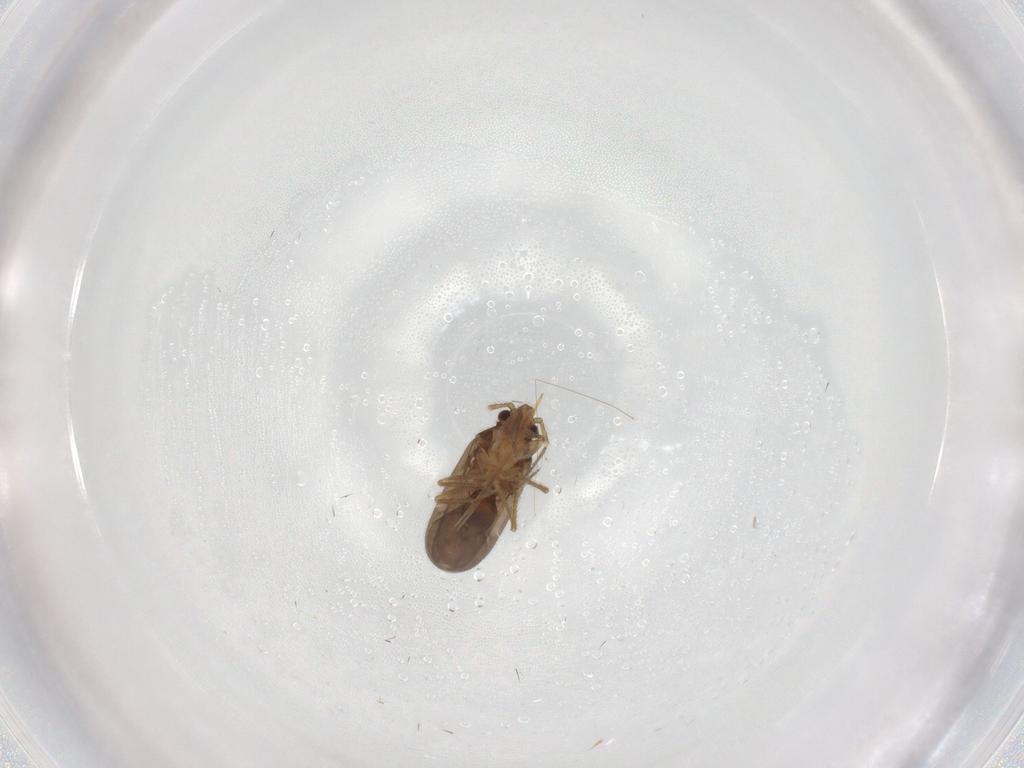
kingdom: Animalia
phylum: Arthropoda
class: Insecta
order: Hemiptera
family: Ceratocombidae
